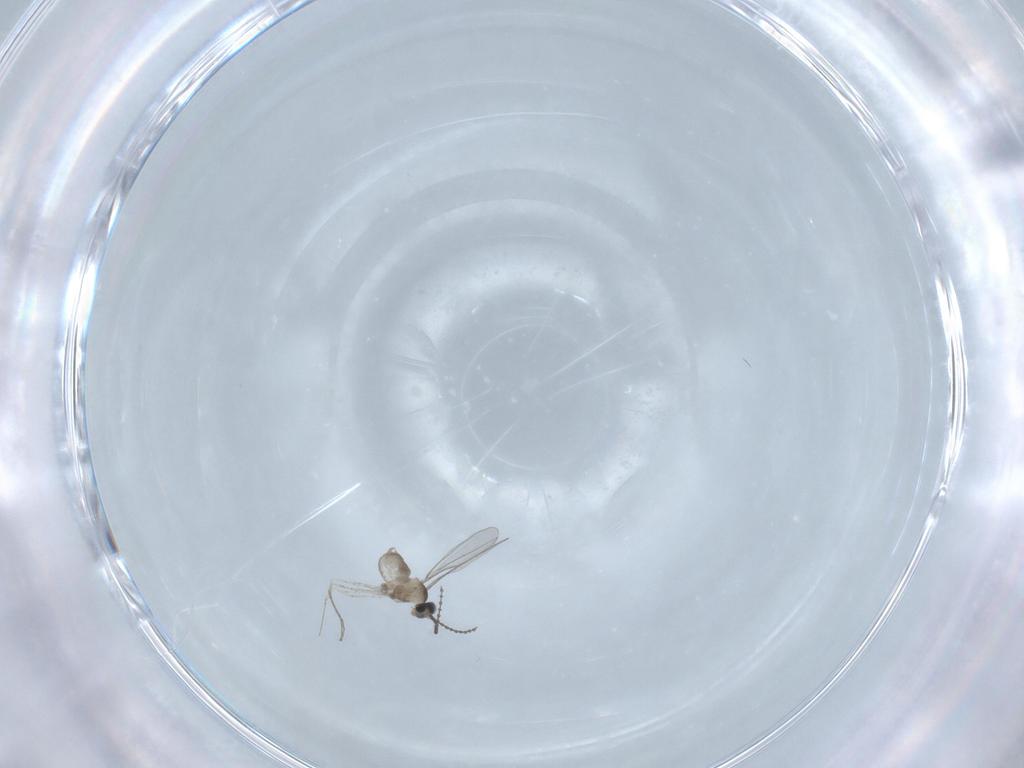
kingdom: Animalia
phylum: Arthropoda
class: Insecta
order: Diptera
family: Cecidomyiidae
